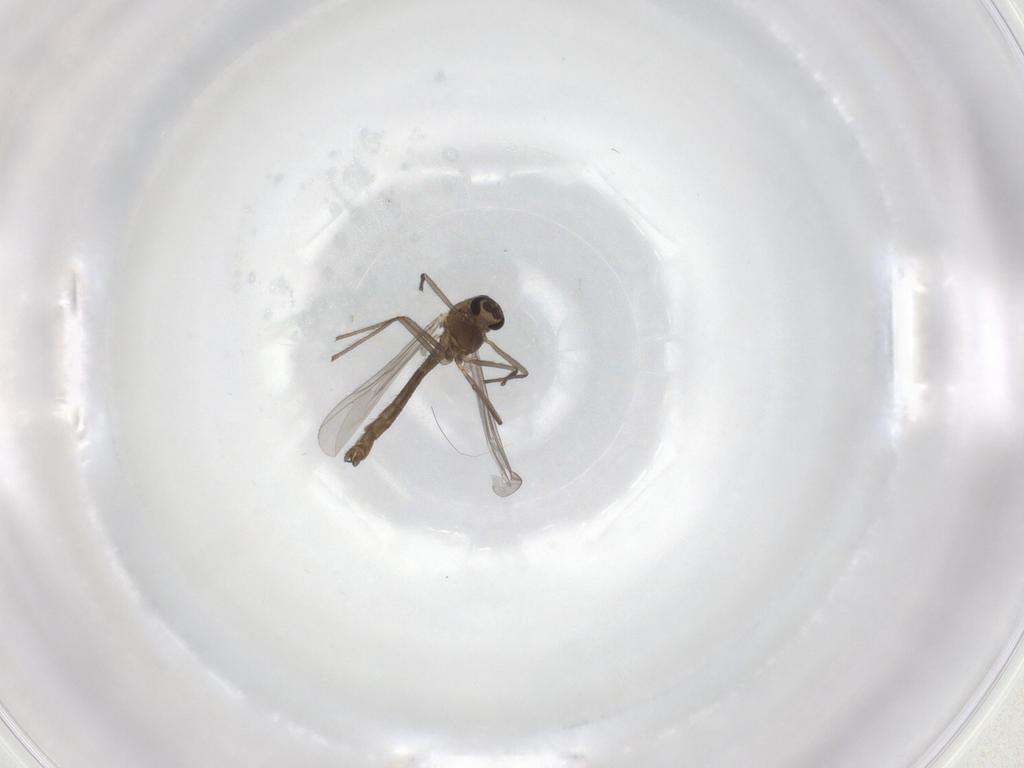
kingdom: Animalia
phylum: Arthropoda
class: Insecta
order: Diptera
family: Chironomidae
